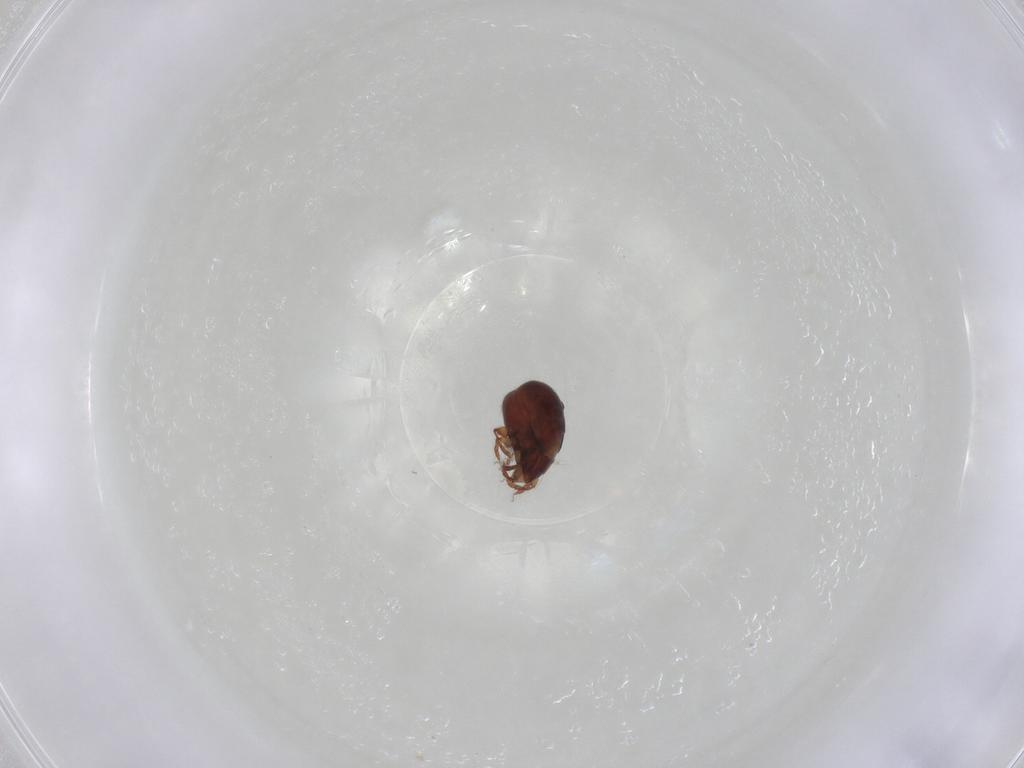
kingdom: Animalia
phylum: Arthropoda
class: Arachnida
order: Sarcoptiformes
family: Humerobatidae
